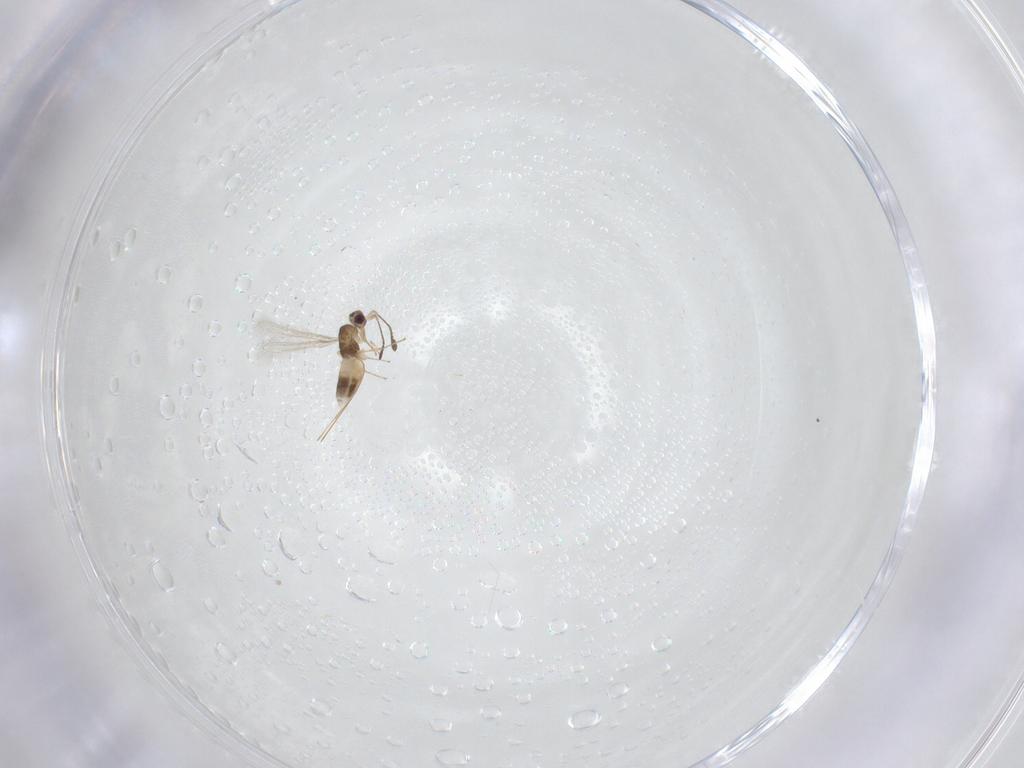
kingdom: Animalia
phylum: Arthropoda
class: Insecta
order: Hymenoptera
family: Mymaridae
